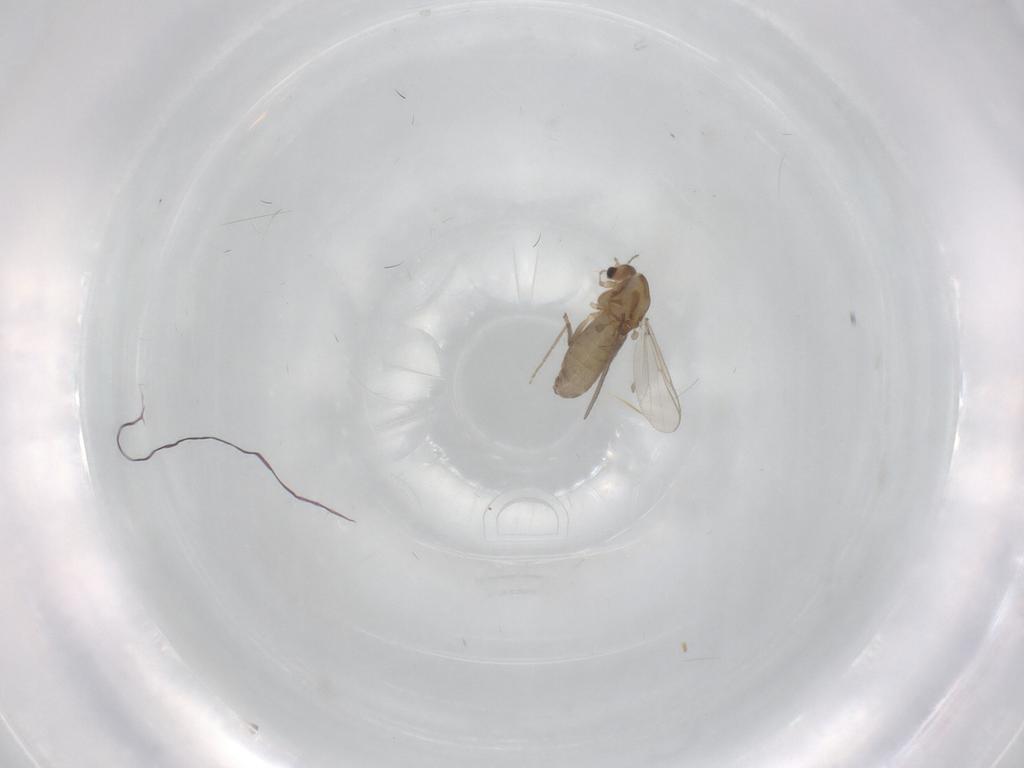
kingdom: Animalia
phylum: Arthropoda
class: Insecta
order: Diptera
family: Chironomidae
